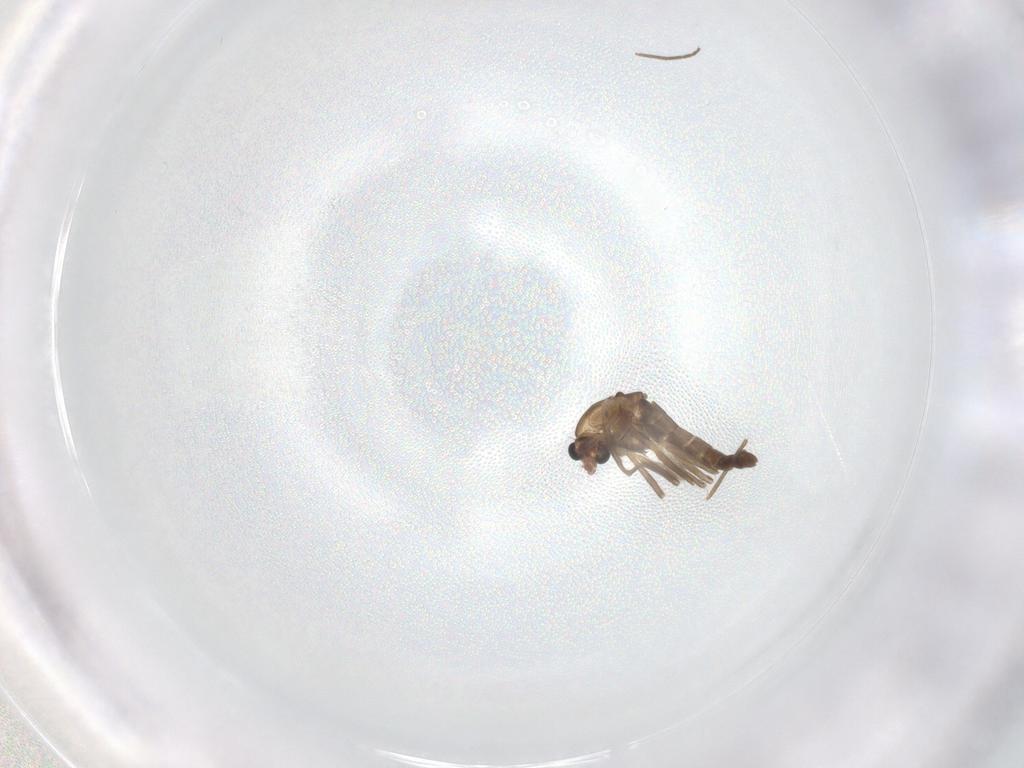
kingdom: Animalia
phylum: Arthropoda
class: Insecta
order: Diptera
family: Chironomidae
